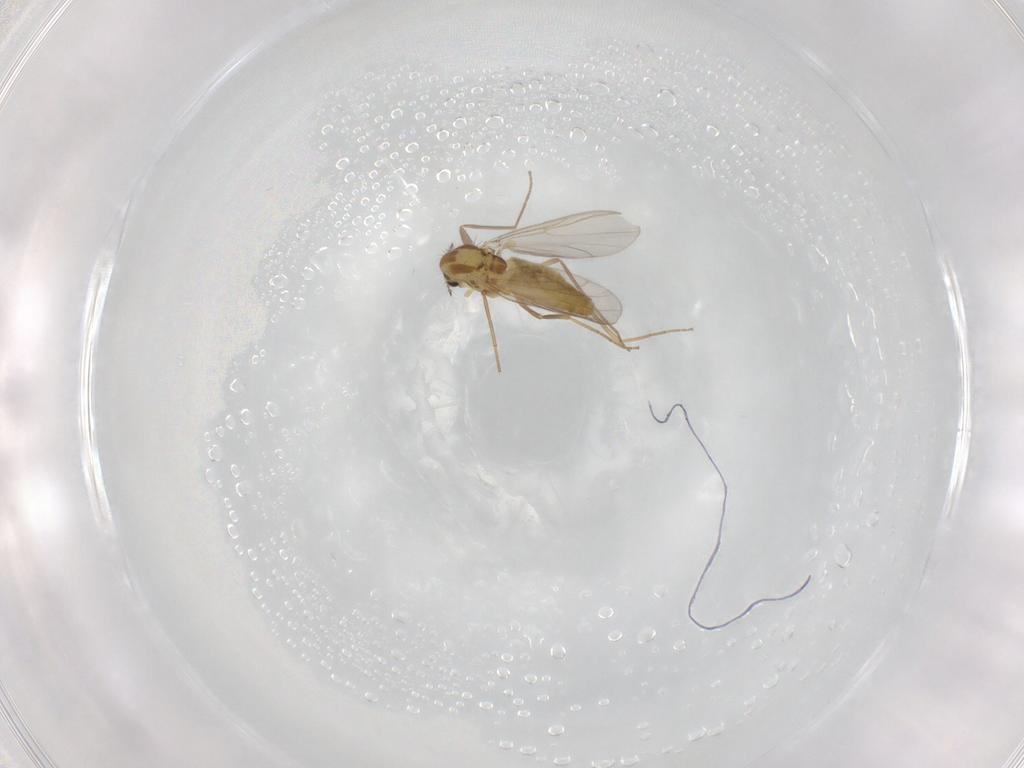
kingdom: Animalia
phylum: Arthropoda
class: Insecta
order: Diptera
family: Chironomidae
